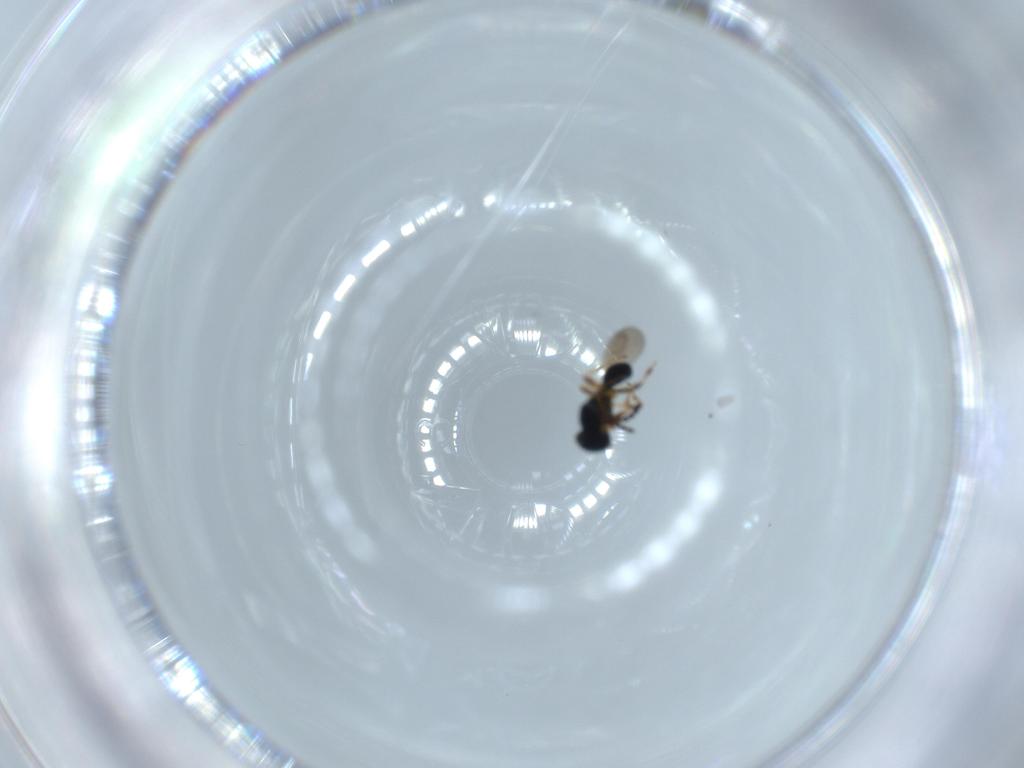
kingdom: Animalia
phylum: Arthropoda
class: Insecta
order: Hymenoptera
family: Platygastridae
